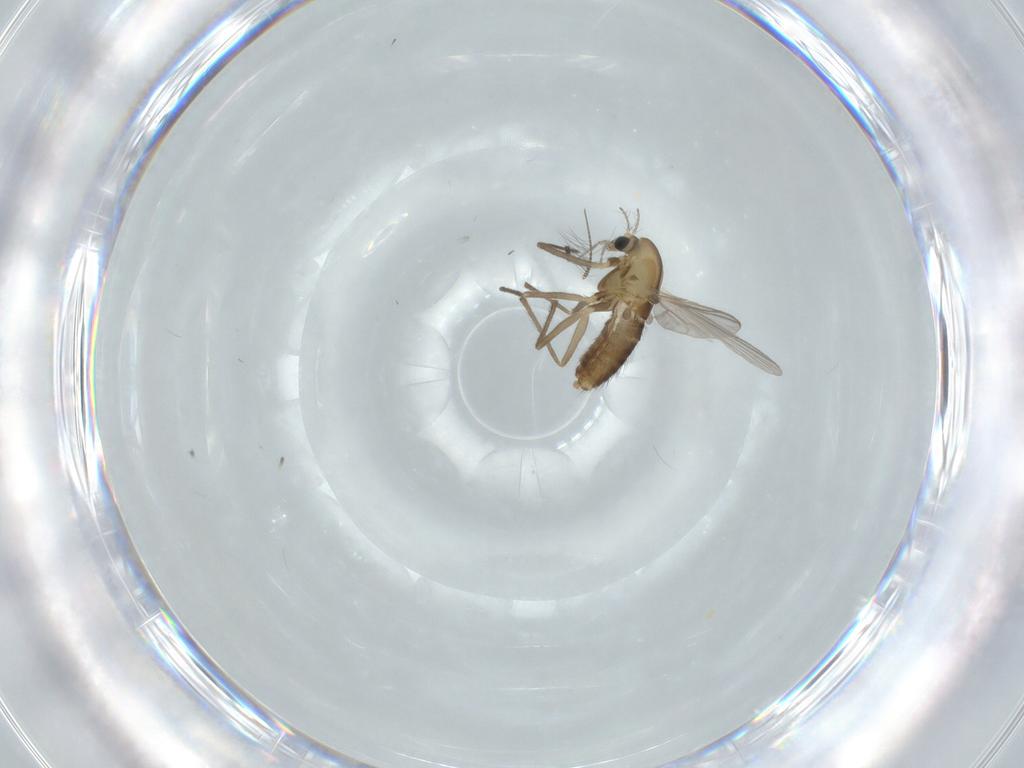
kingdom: Animalia
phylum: Arthropoda
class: Insecta
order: Diptera
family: Chironomidae
